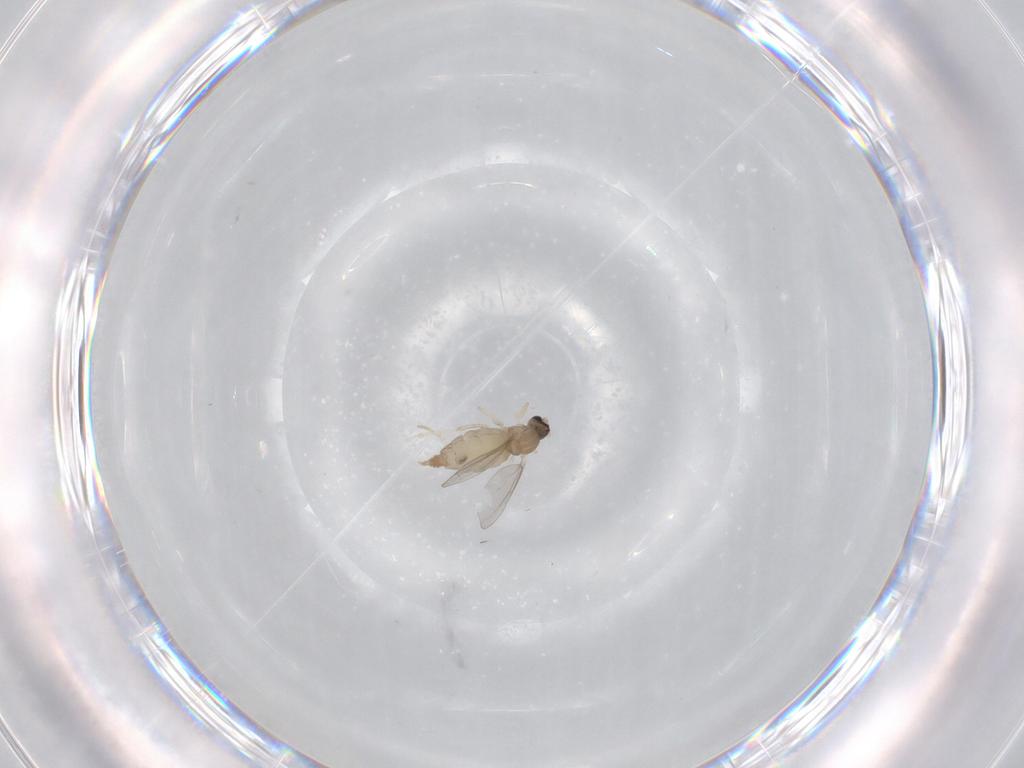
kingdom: Animalia
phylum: Arthropoda
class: Insecta
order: Diptera
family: Cecidomyiidae
